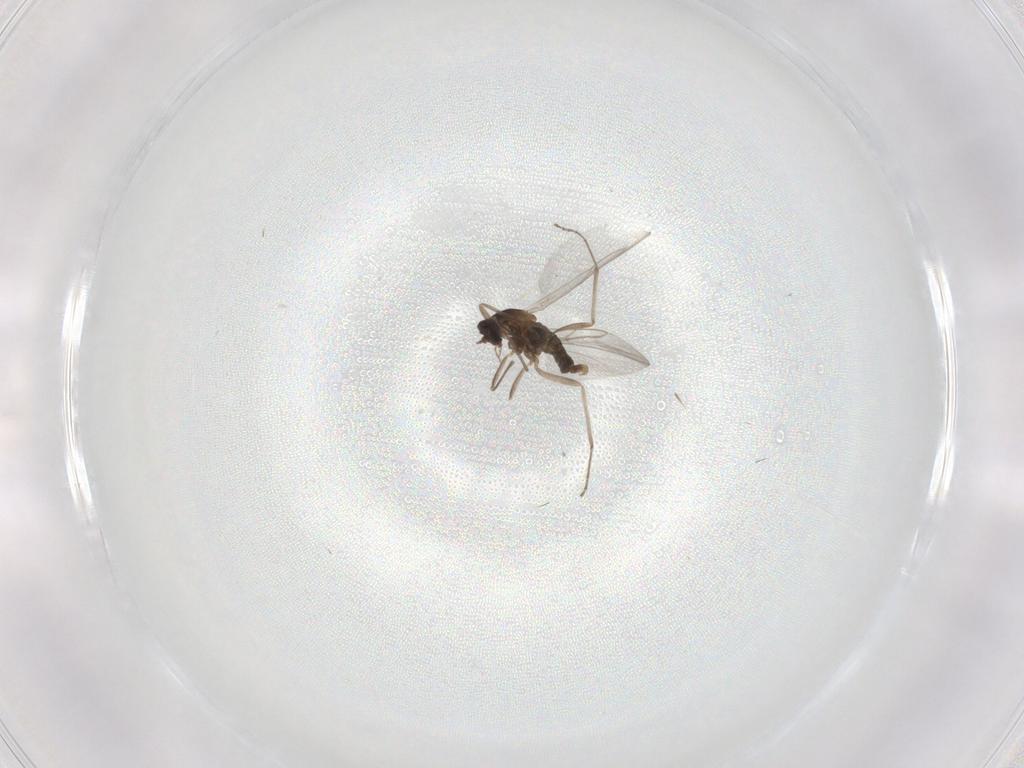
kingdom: Animalia
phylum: Arthropoda
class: Insecta
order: Diptera
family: Cecidomyiidae
